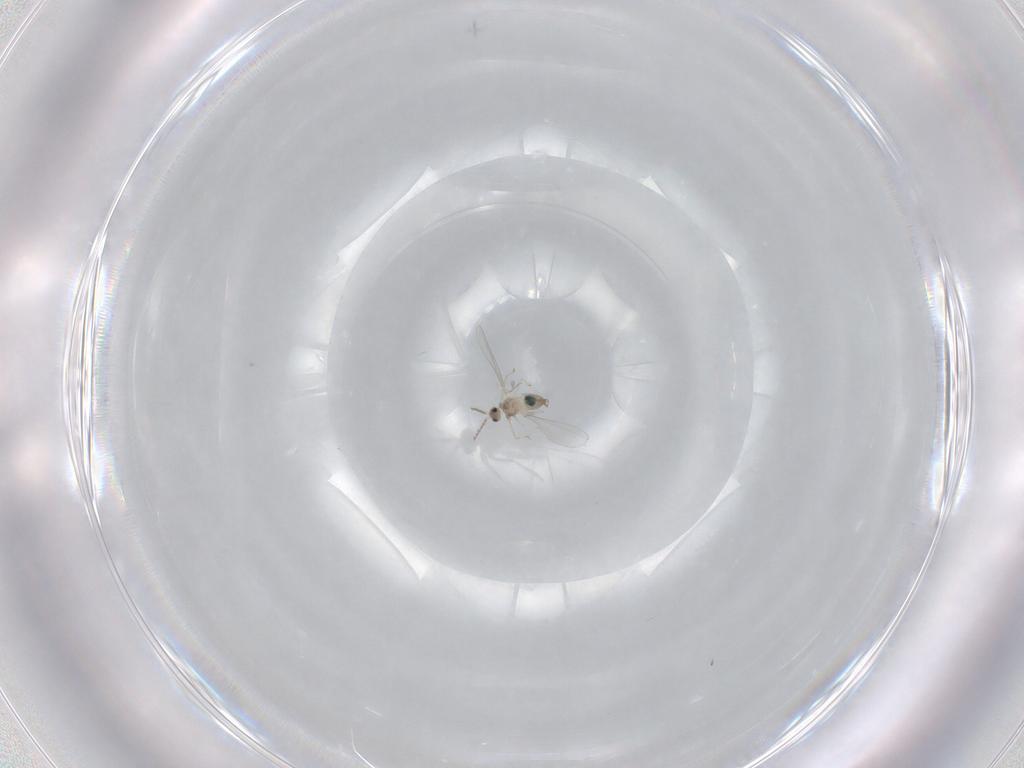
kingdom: Animalia
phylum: Arthropoda
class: Insecta
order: Diptera
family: Cecidomyiidae
